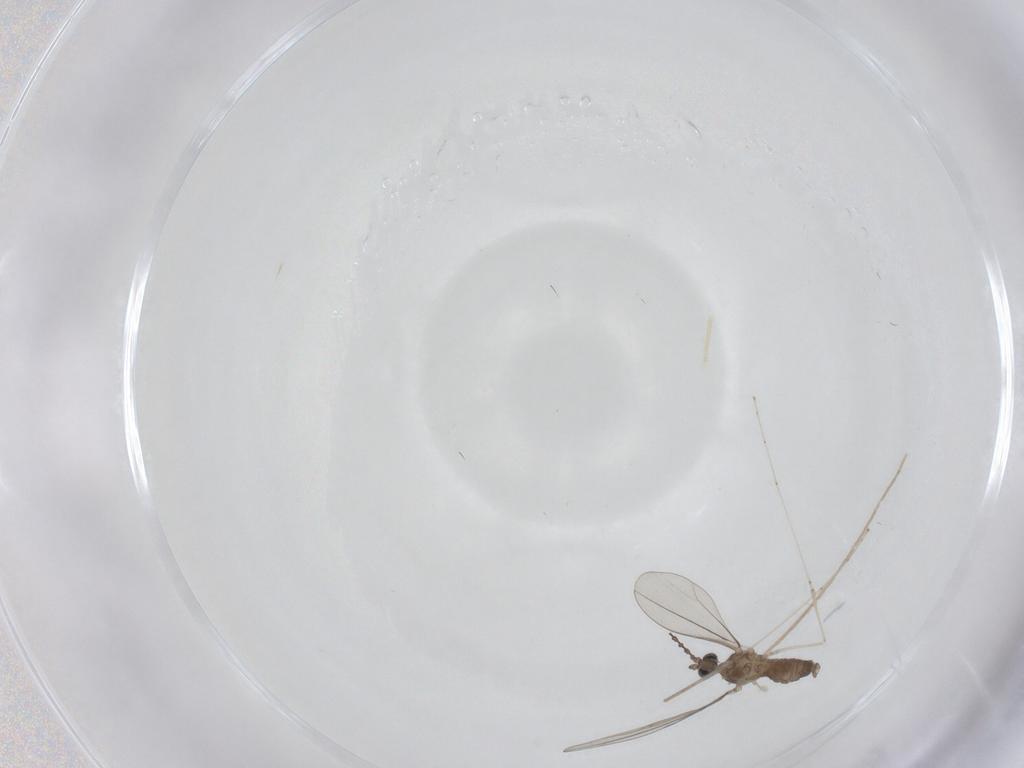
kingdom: Animalia
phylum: Arthropoda
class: Insecta
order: Diptera
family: Cecidomyiidae
